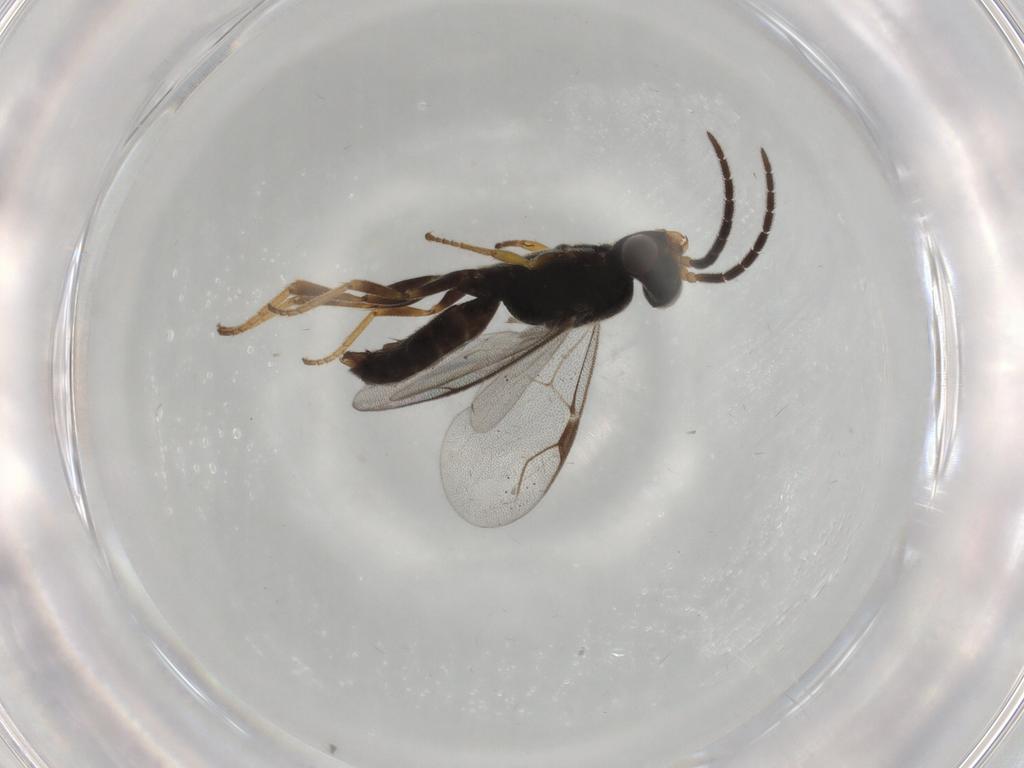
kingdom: Animalia
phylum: Arthropoda
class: Insecta
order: Hymenoptera
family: Dryinidae
